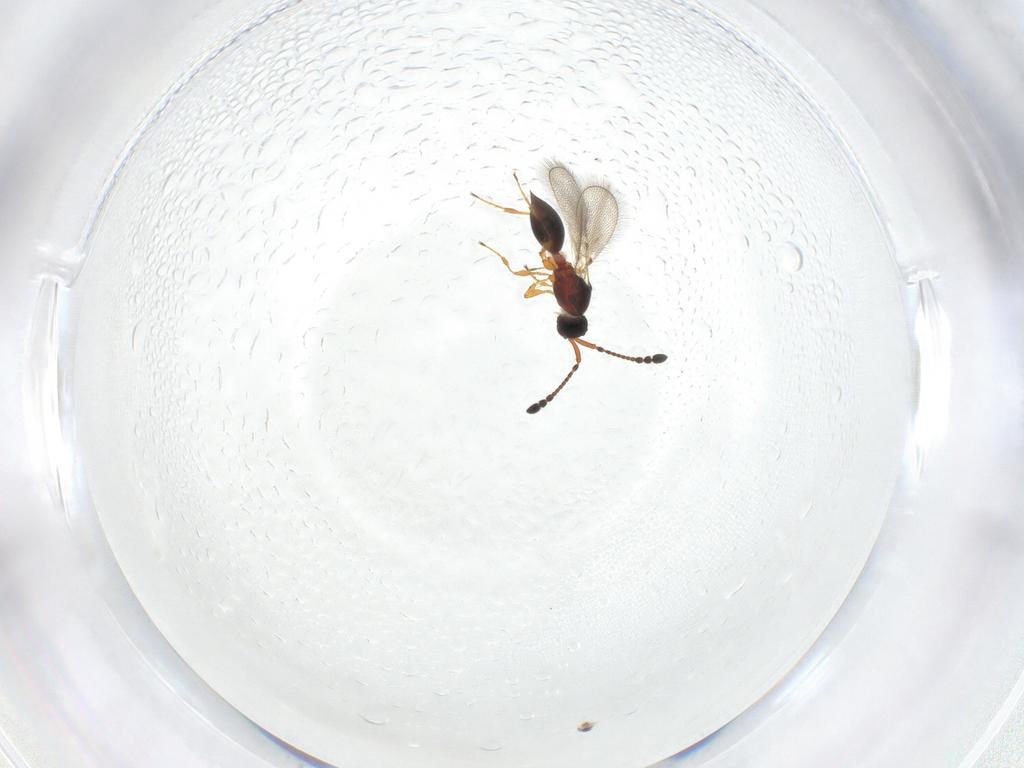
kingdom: Animalia
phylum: Arthropoda
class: Insecta
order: Hymenoptera
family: Diapriidae
